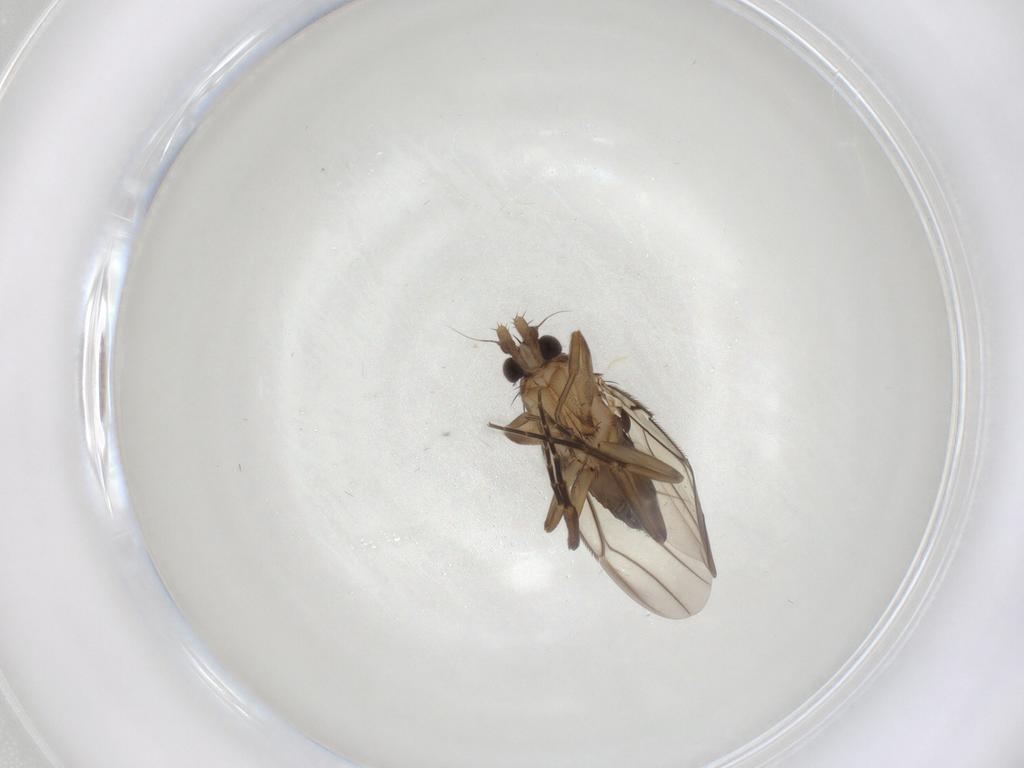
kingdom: Animalia
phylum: Arthropoda
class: Insecta
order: Diptera
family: Phoridae
